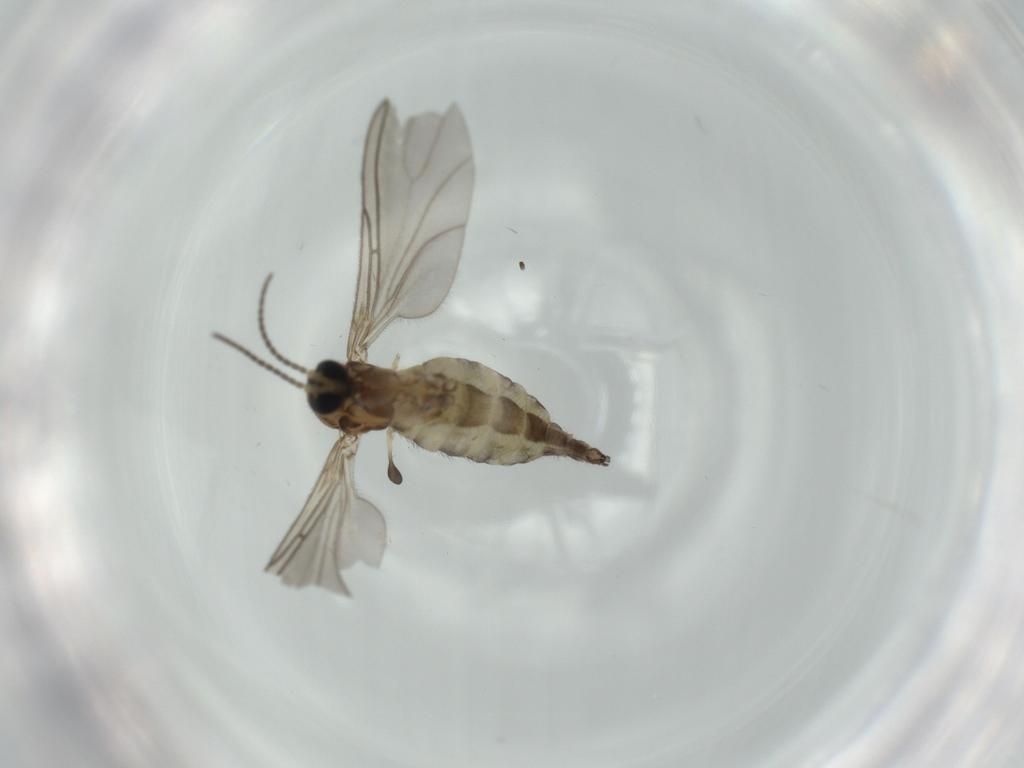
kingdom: Animalia
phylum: Arthropoda
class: Insecta
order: Diptera
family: Sciaridae
